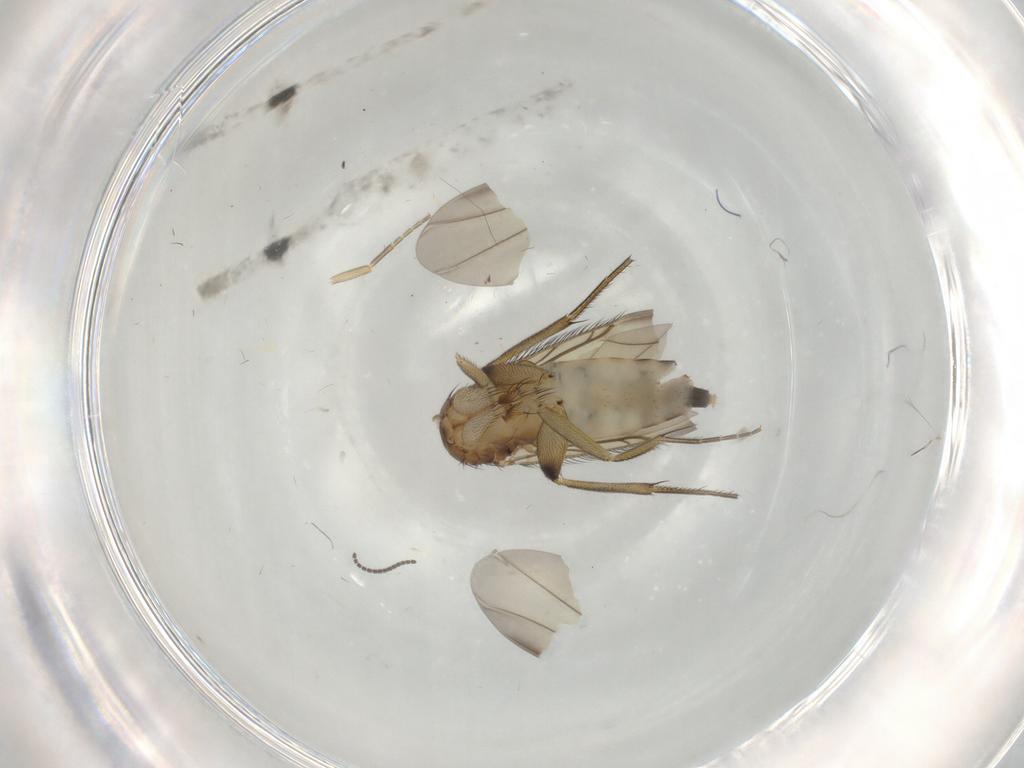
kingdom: Animalia
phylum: Arthropoda
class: Insecta
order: Diptera
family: Phoridae
